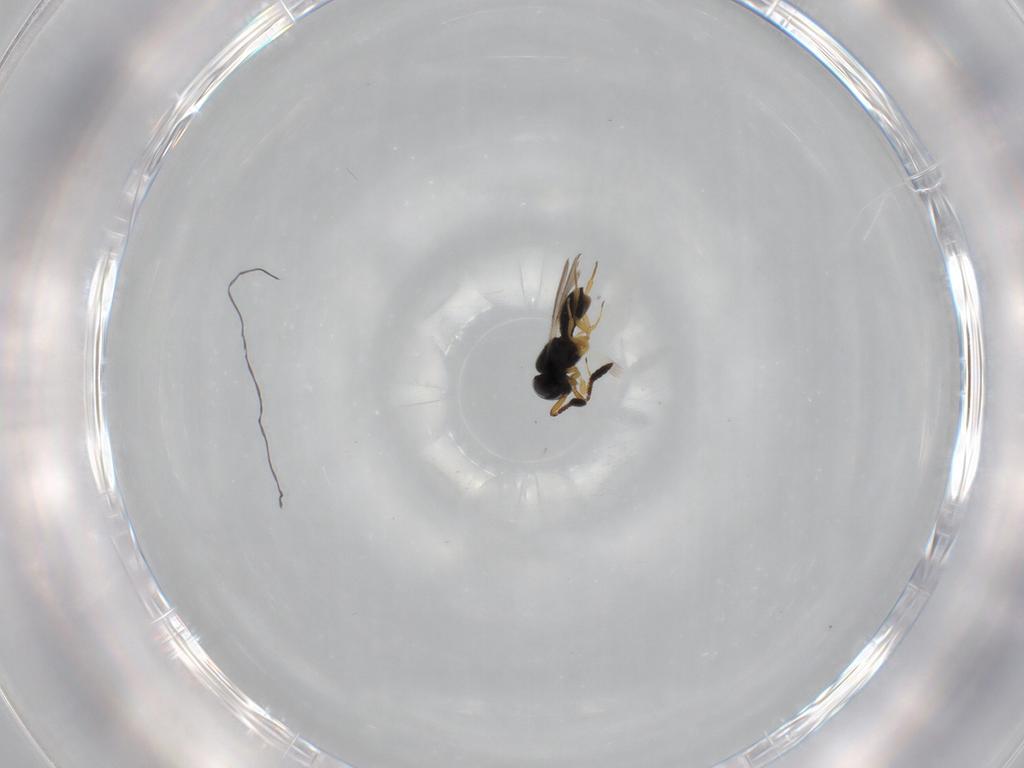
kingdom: Animalia
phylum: Arthropoda
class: Insecta
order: Hymenoptera
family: Scelionidae
